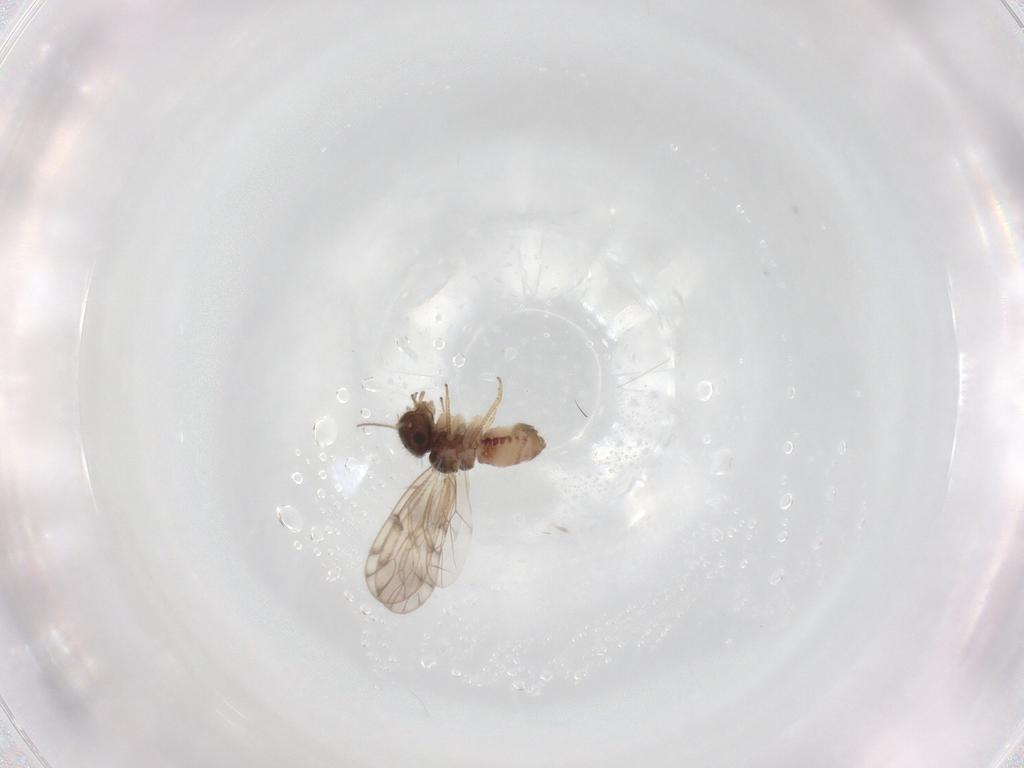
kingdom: Animalia
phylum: Arthropoda
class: Insecta
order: Psocodea
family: Peripsocidae
